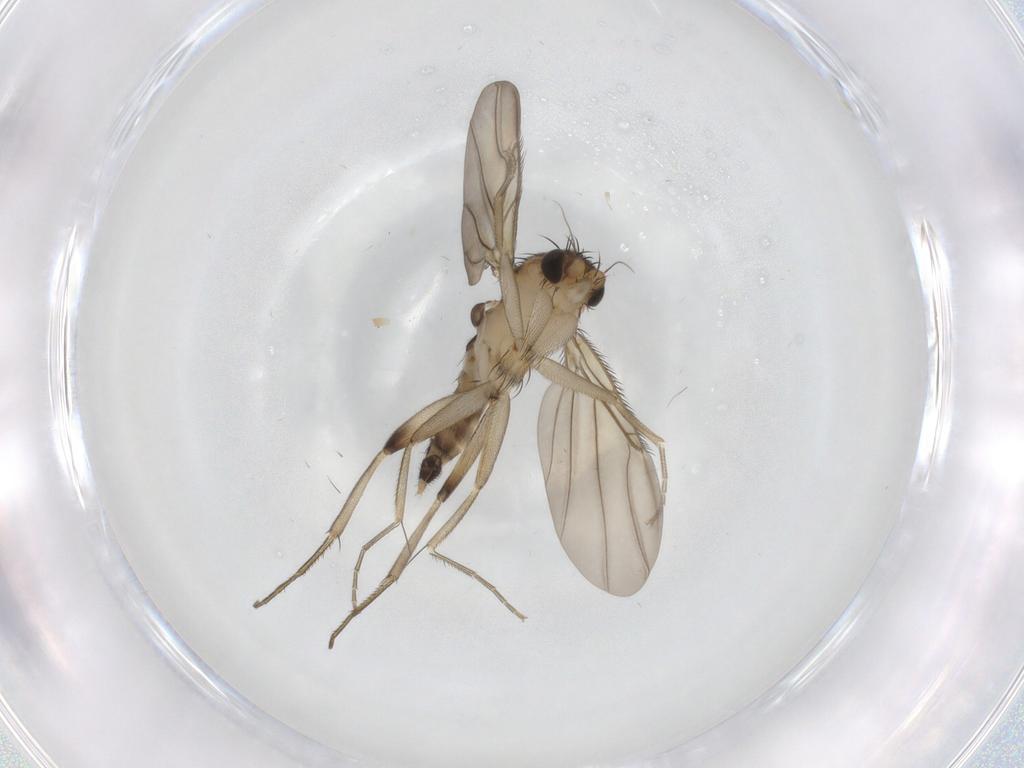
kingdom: Animalia
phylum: Arthropoda
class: Insecta
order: Diptera
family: Phoridae
